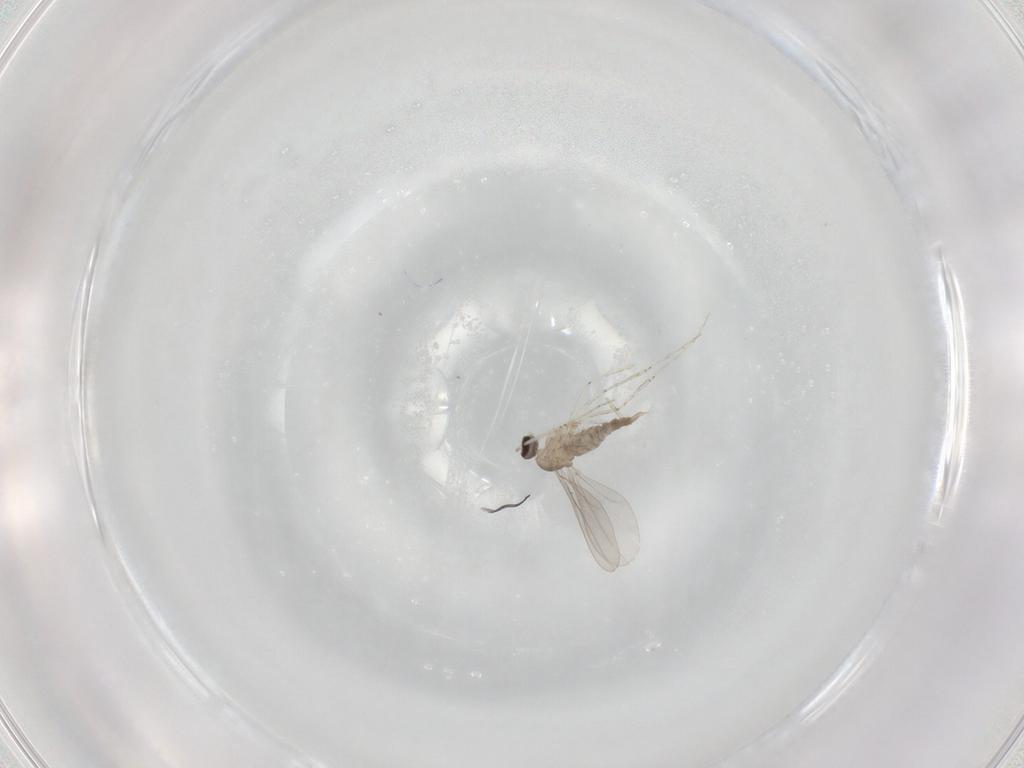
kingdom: Animalia
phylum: Arthropoda
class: Insecta
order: Diptera
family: Cecidomyiidae
